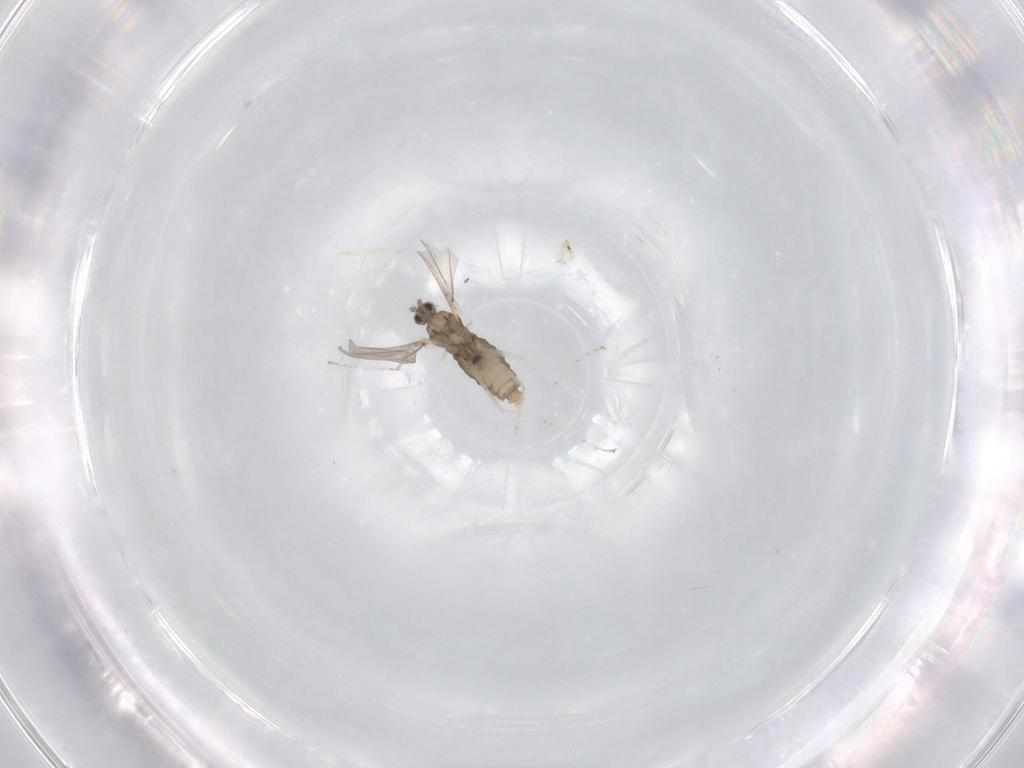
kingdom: Animalia
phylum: Arthropoda
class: Insecta
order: Diptera
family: Cecidomyiidae
